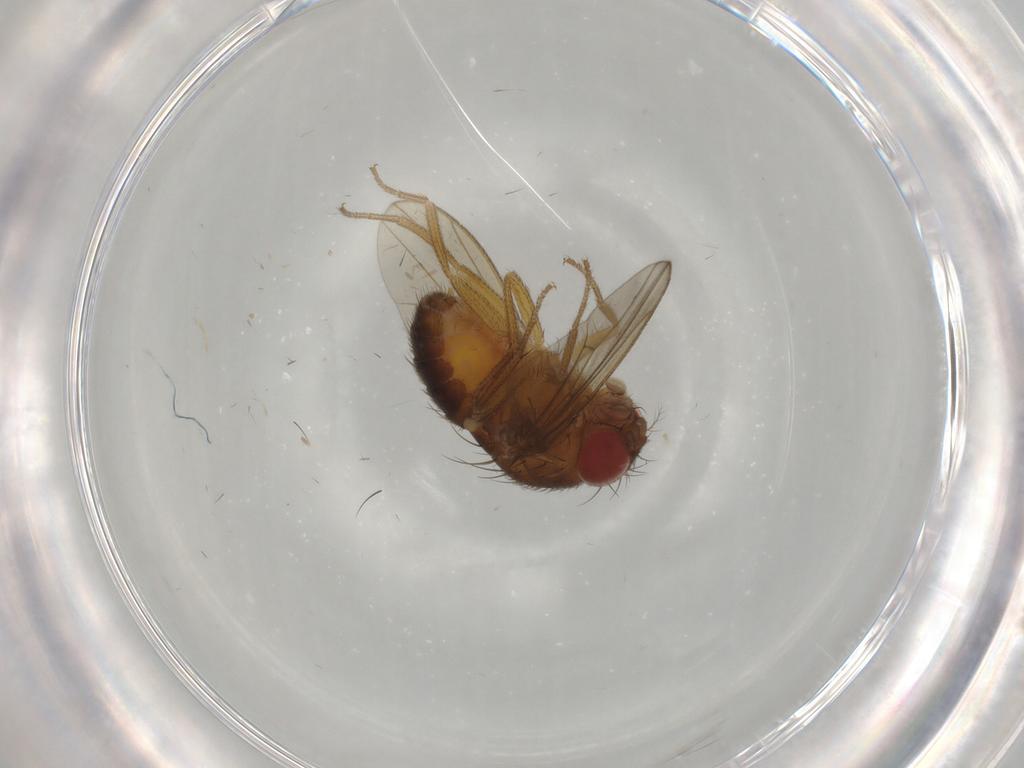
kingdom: Animalia
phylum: Arthropoda
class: Insecta
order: Diptera
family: Drosophilidae
